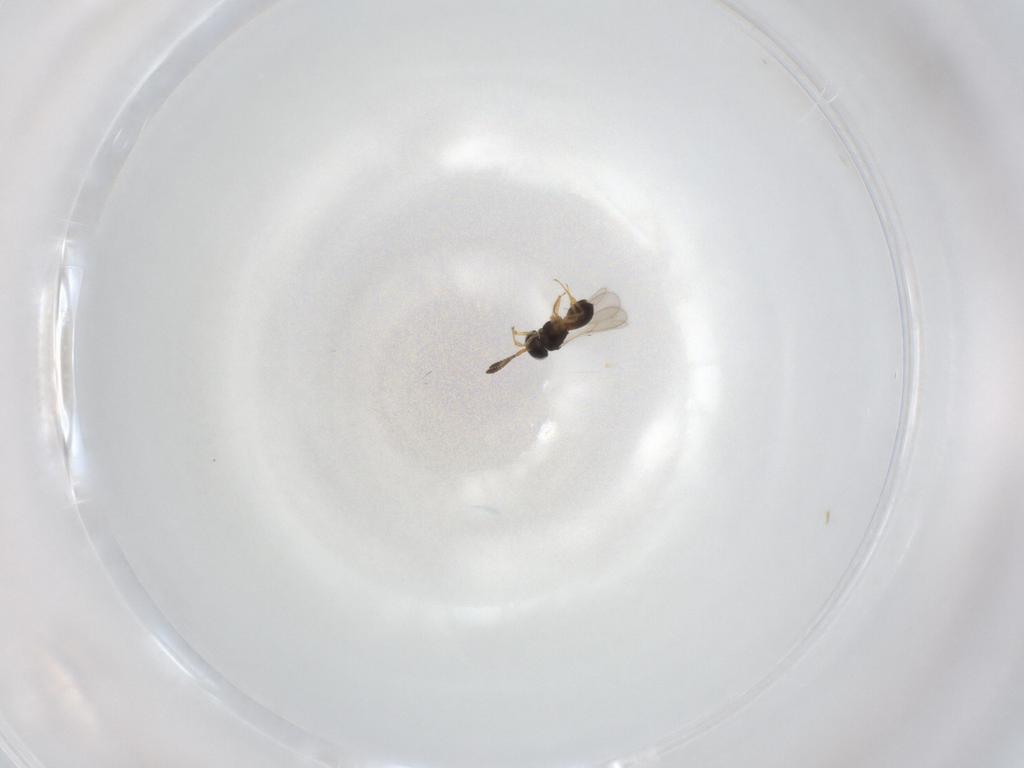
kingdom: Animalia
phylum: Arthropoda
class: Insecta
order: Hymenoptera
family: Scelionidae
